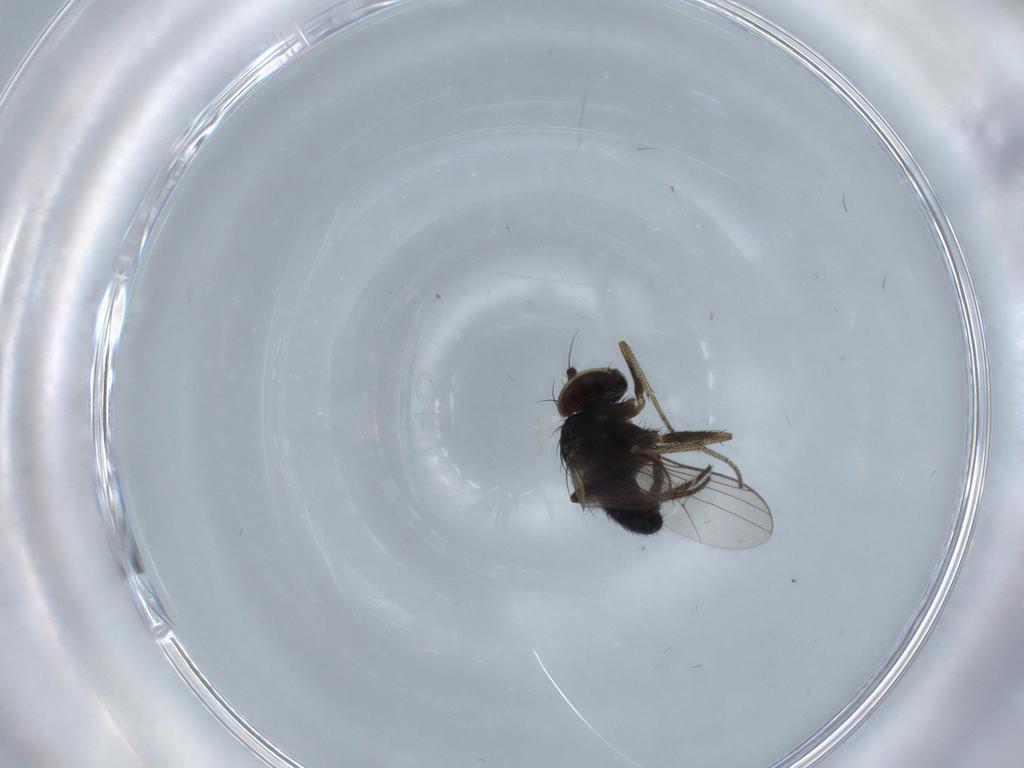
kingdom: Animalia
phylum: Arthropoda
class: Insecta
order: Diptera
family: Dolichopodidae
